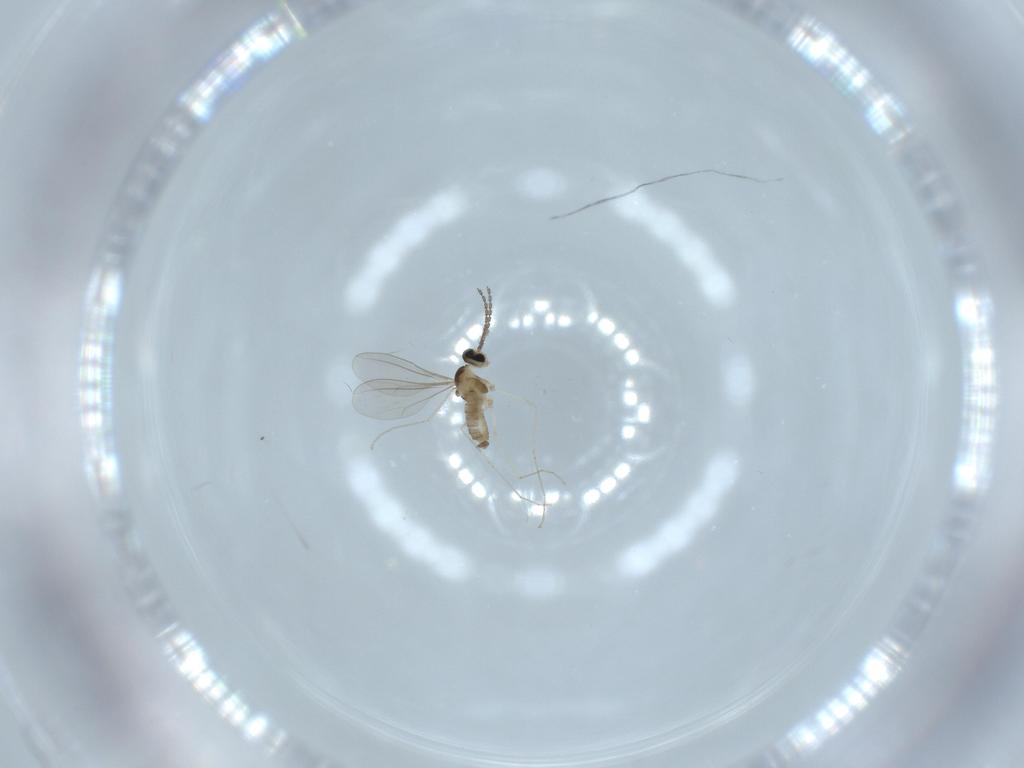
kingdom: Animalia
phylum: Arthropoda
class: Insecta
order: Diptera
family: Cecidomyiidae
